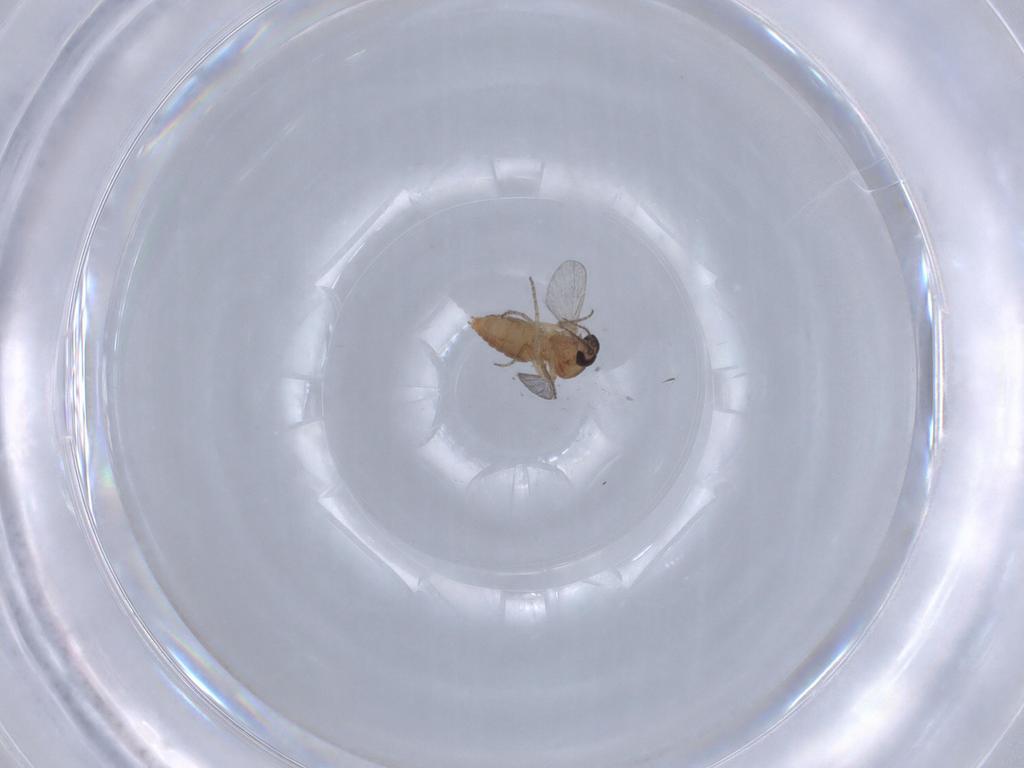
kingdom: Animalia
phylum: Arthropoda
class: Insecta
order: Diptera
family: Ceratopogonidae
